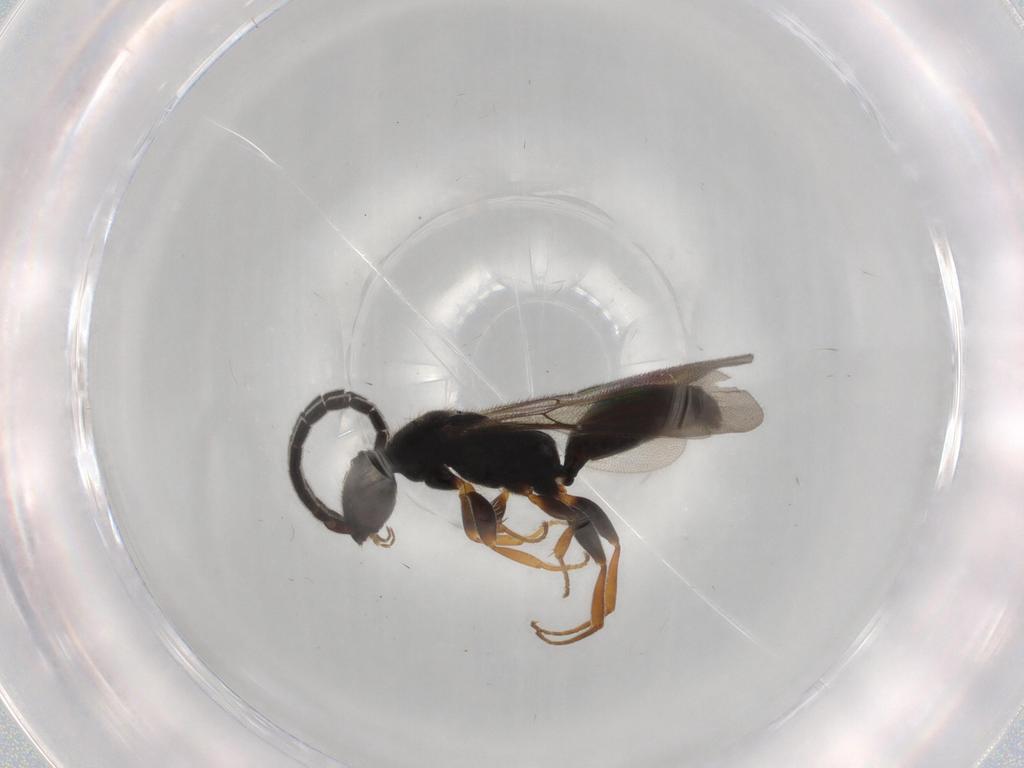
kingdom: Animalia
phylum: Arthropoda
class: Insecta
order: Hymenoptera
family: Bethylidae
